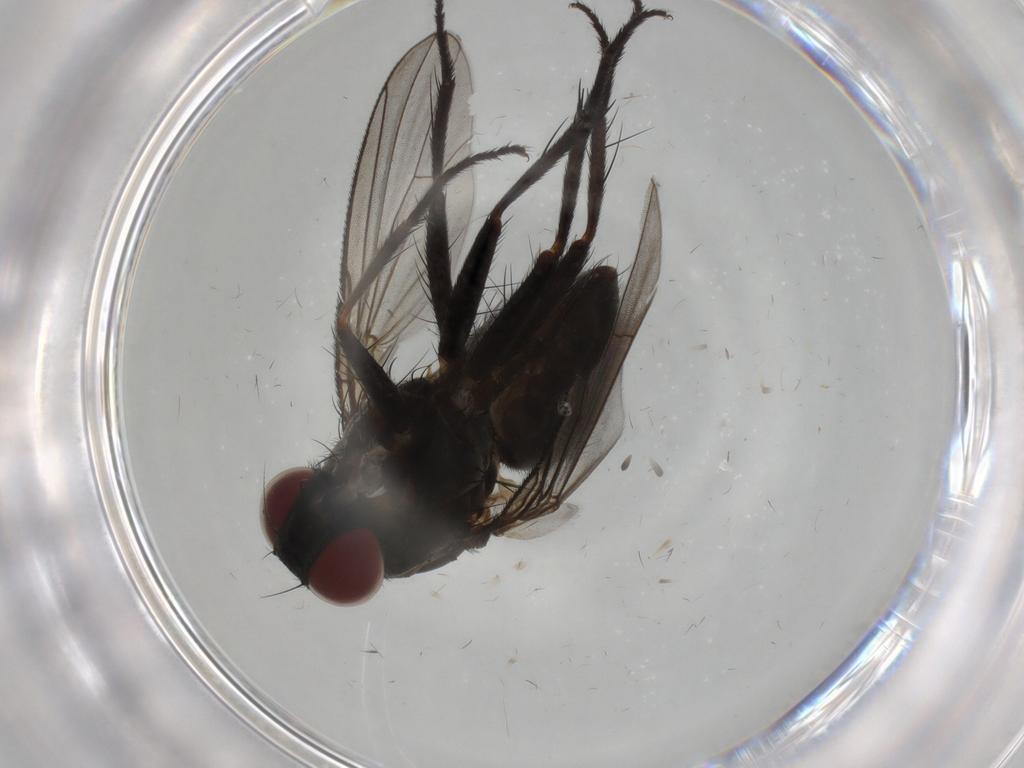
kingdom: Animalia
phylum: Arthropoda
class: Insecta
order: Diptera
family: Muscidae
